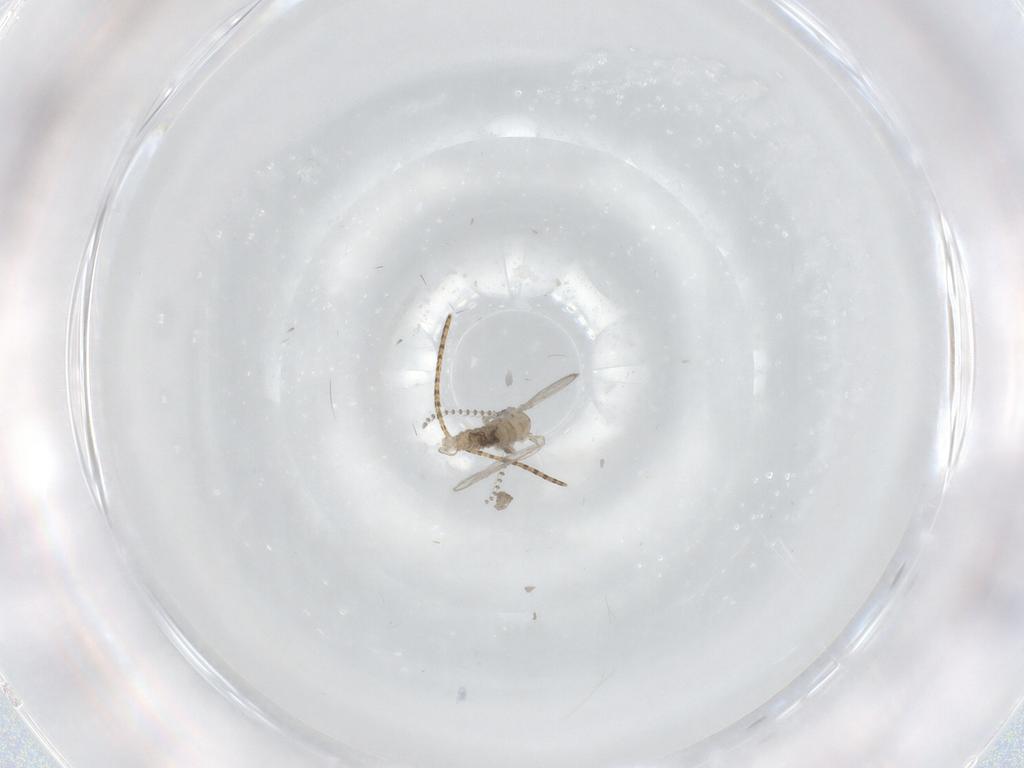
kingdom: Animalia
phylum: Arthropoda
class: Insecta
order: Diptera
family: Psychodidae
